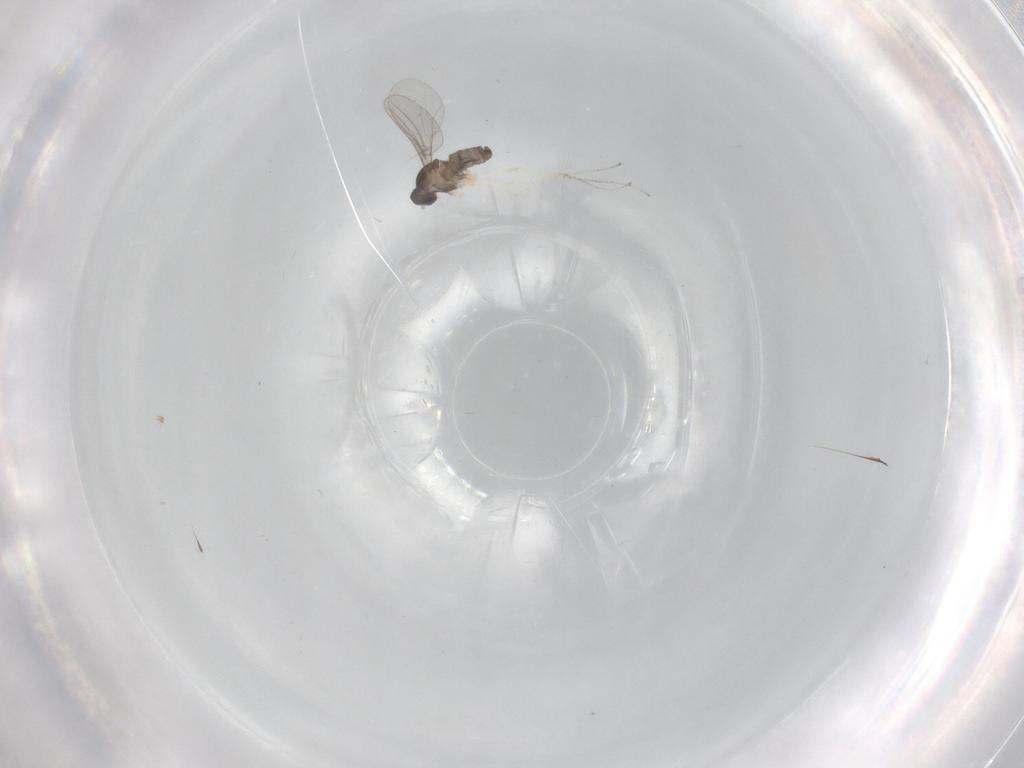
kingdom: Animalia
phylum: Arthropoda
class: Insecta
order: Diptera
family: Cecidomyiidae
